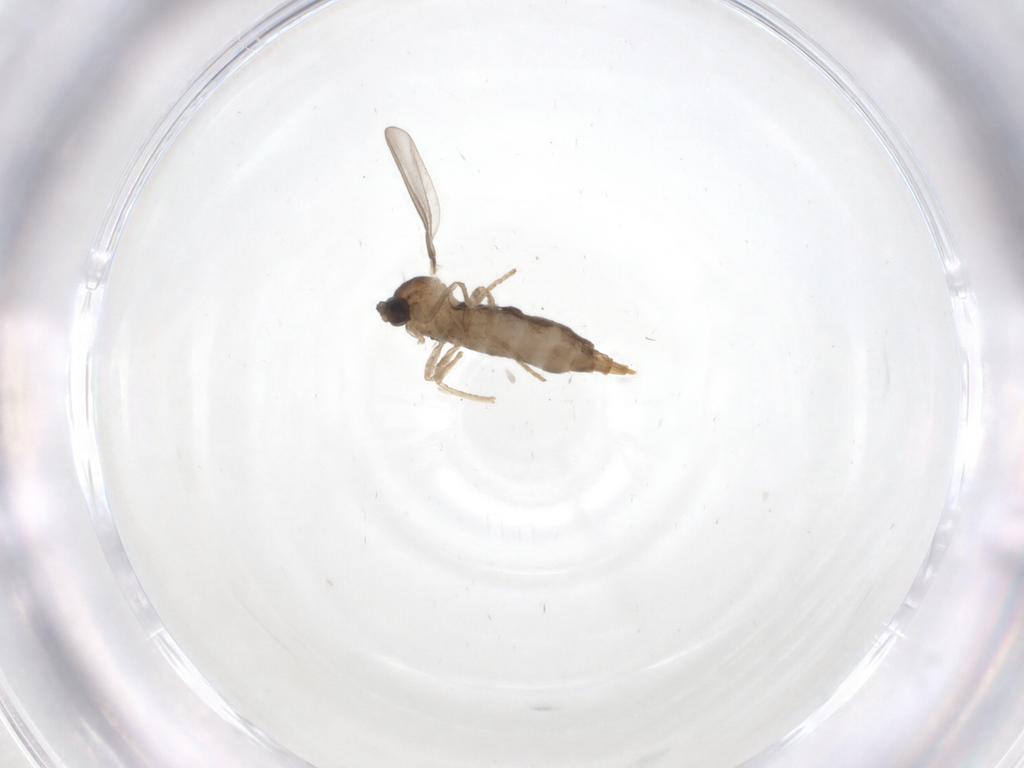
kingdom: Animalia
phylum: Arthropoda
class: Insecta
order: Diptera
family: Cecidomyiidae
